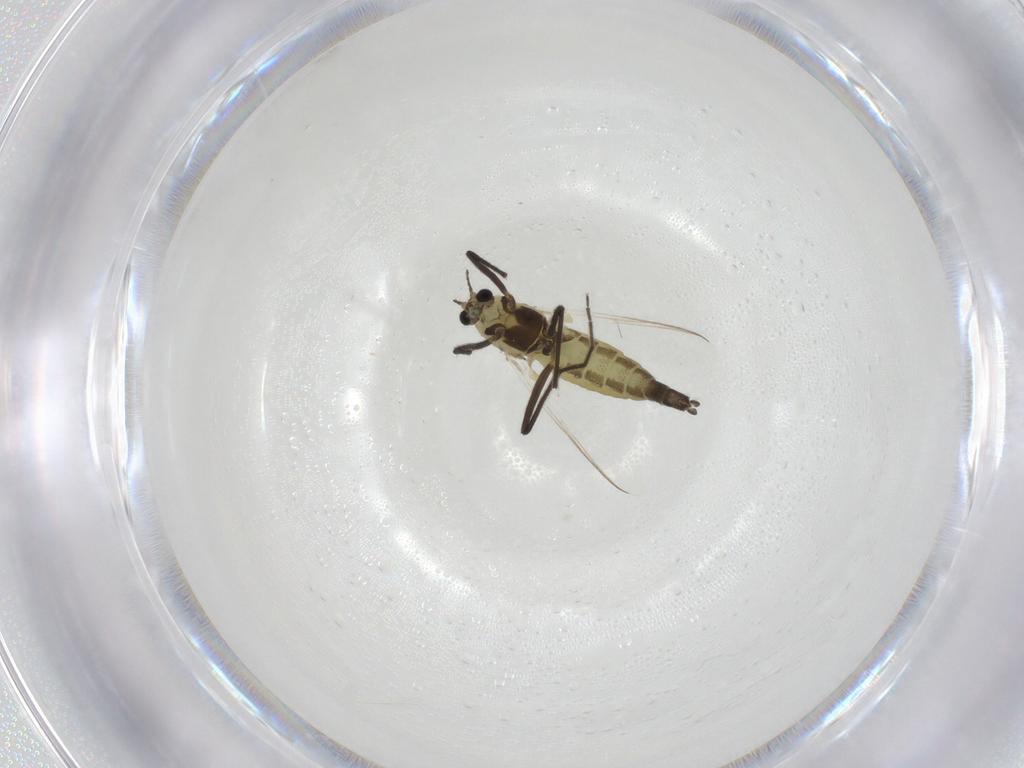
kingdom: Animalia
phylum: Arthropoda
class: Insecta
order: Diptera
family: Chironomidae
